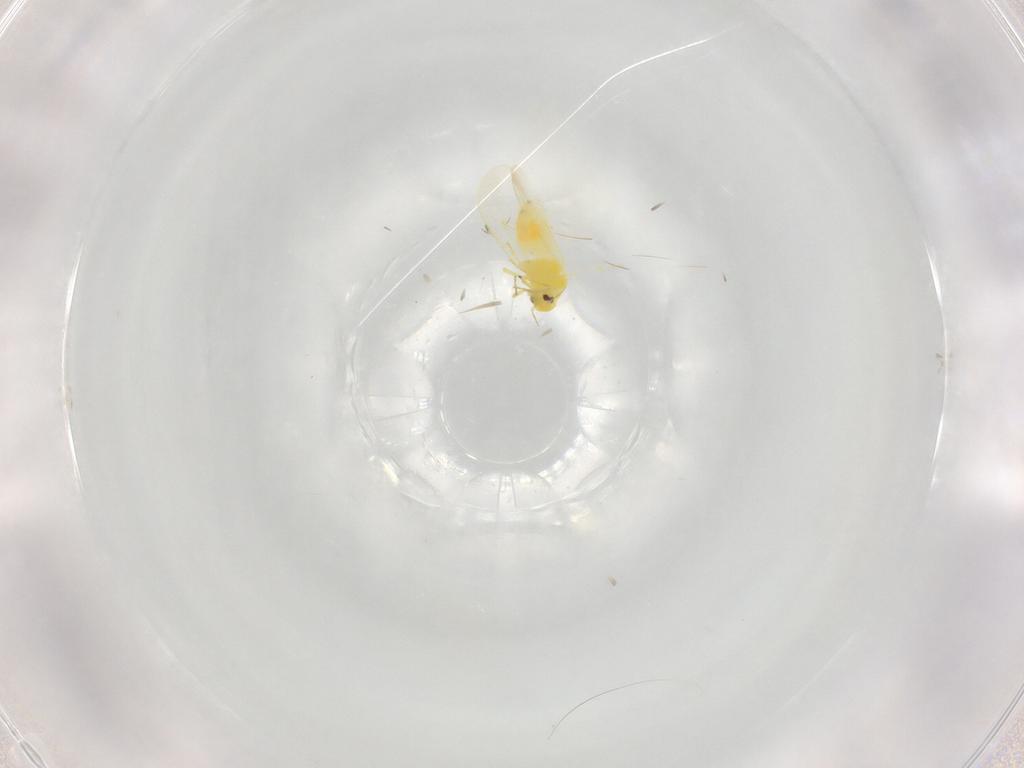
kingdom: Animalia
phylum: Arthropoda
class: Insecta
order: Hemiptera
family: Aleyrodidae
